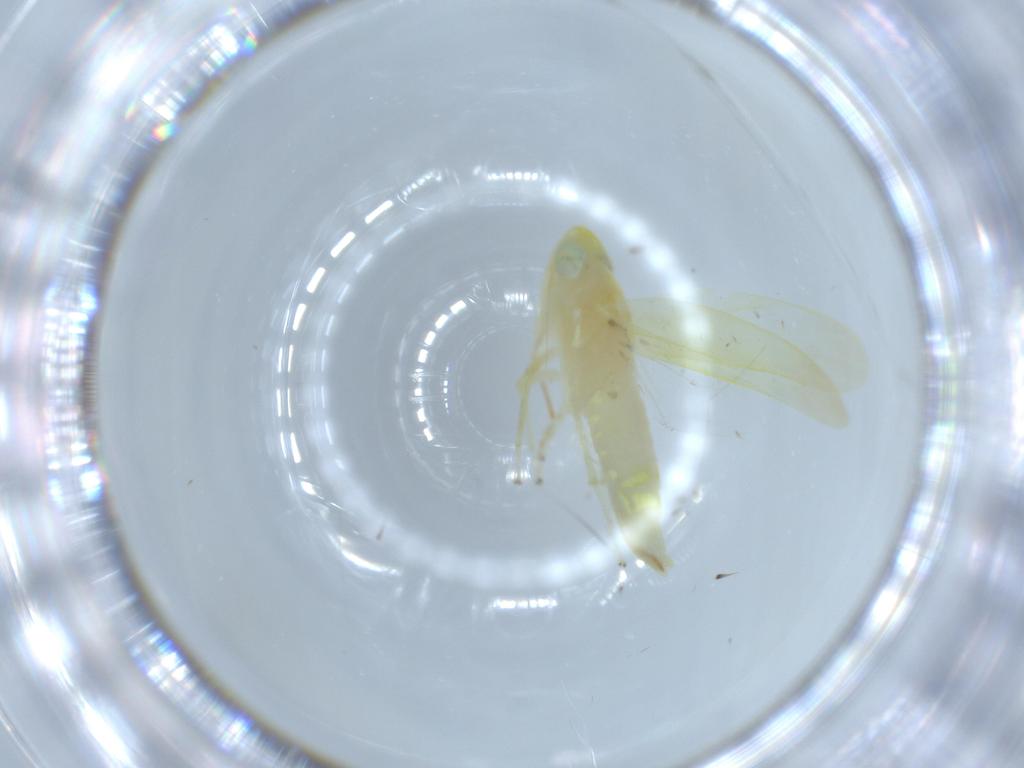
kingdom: Animalia
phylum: Arthropoda
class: Insecta
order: Hemiptera
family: Cicadellidae
